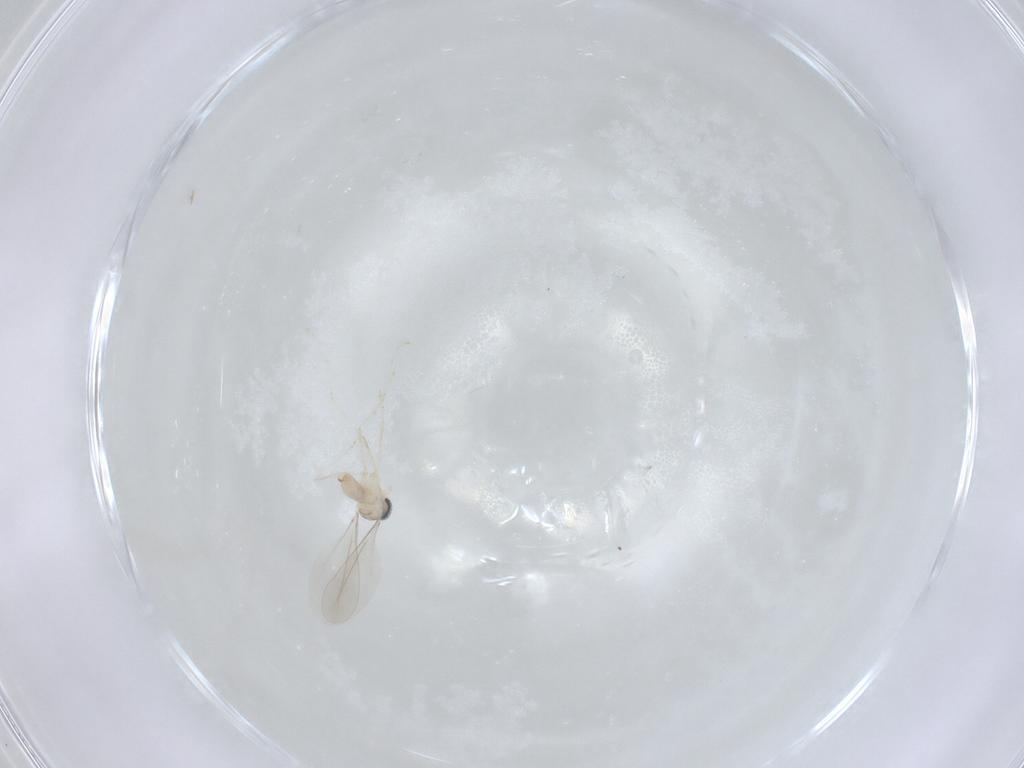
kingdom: Animalia
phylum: Arthropoda
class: Insecta
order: Diptera
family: Cecidomyiidae
